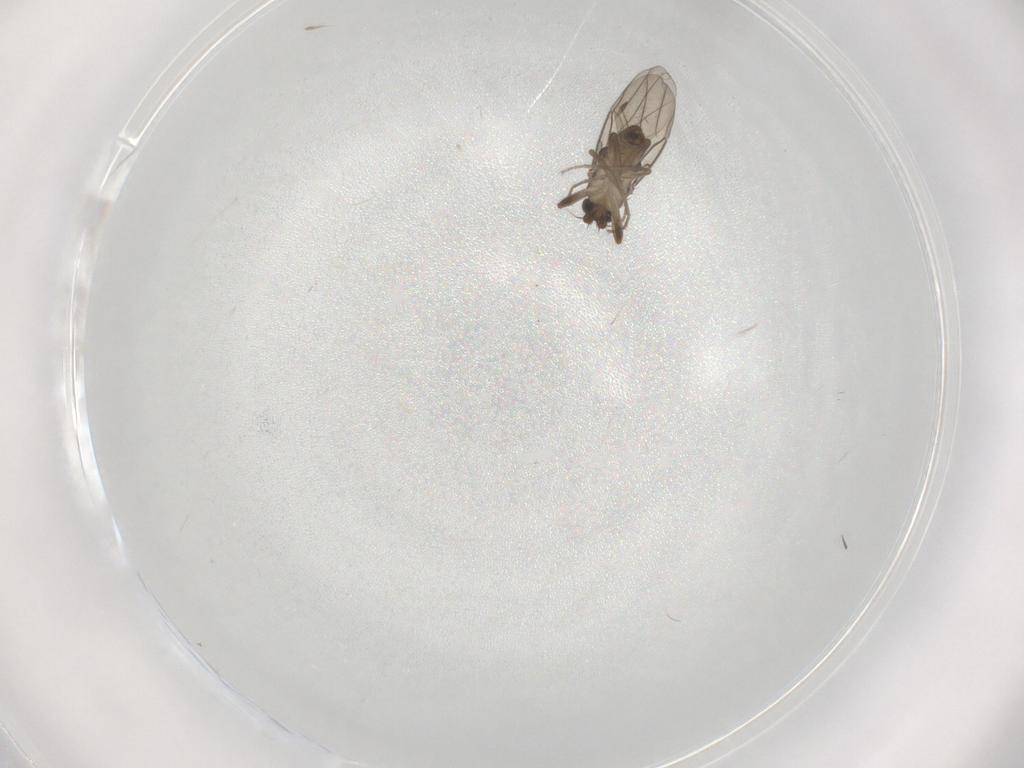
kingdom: Animalia
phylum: Arthropoda
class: Insecta
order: Diptera
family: Cecidomyiidae
